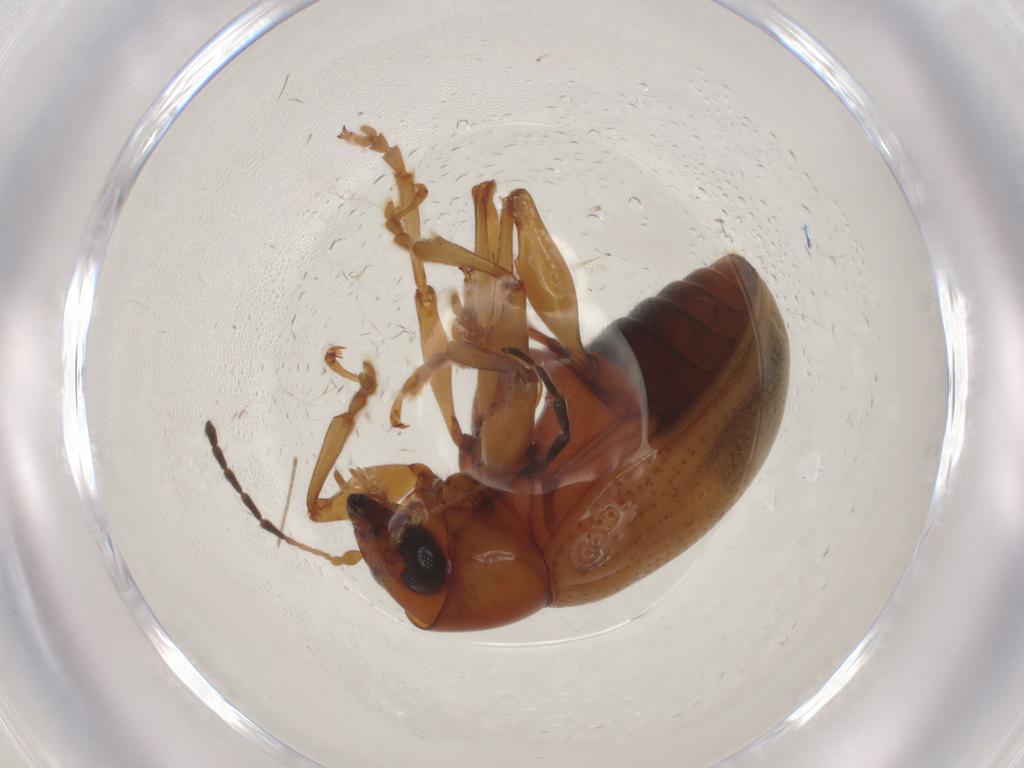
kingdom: Animalia
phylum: Arthropoda
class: Insecta
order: Coleoptera
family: Chrysomelidae
